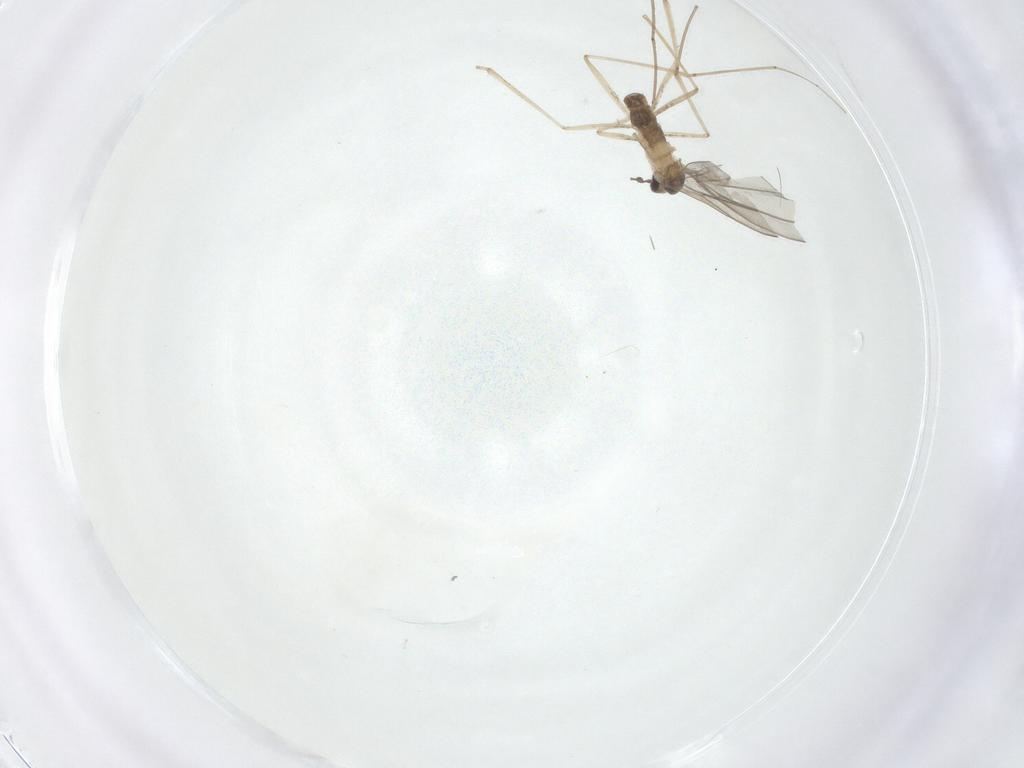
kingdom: Animalia
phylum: Arthropoda
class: Insecta
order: Diptera
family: Cecidomyiidae
